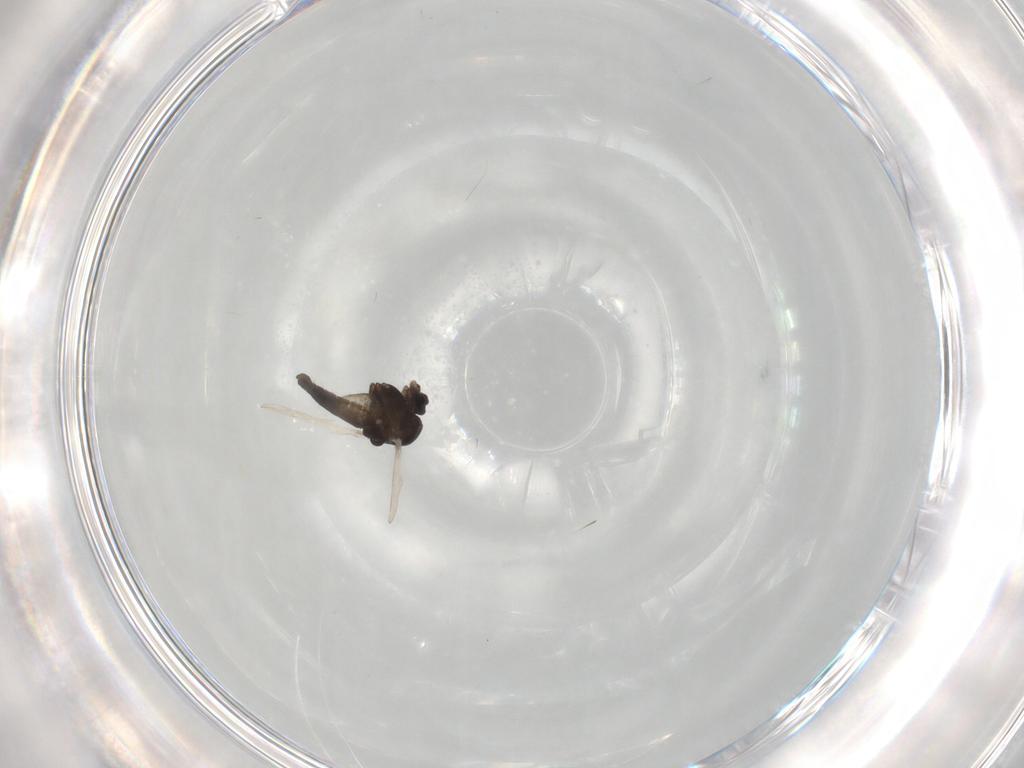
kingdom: Animalia
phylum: Arthropoda
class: Insecta
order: Diptera
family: Chironomidae
